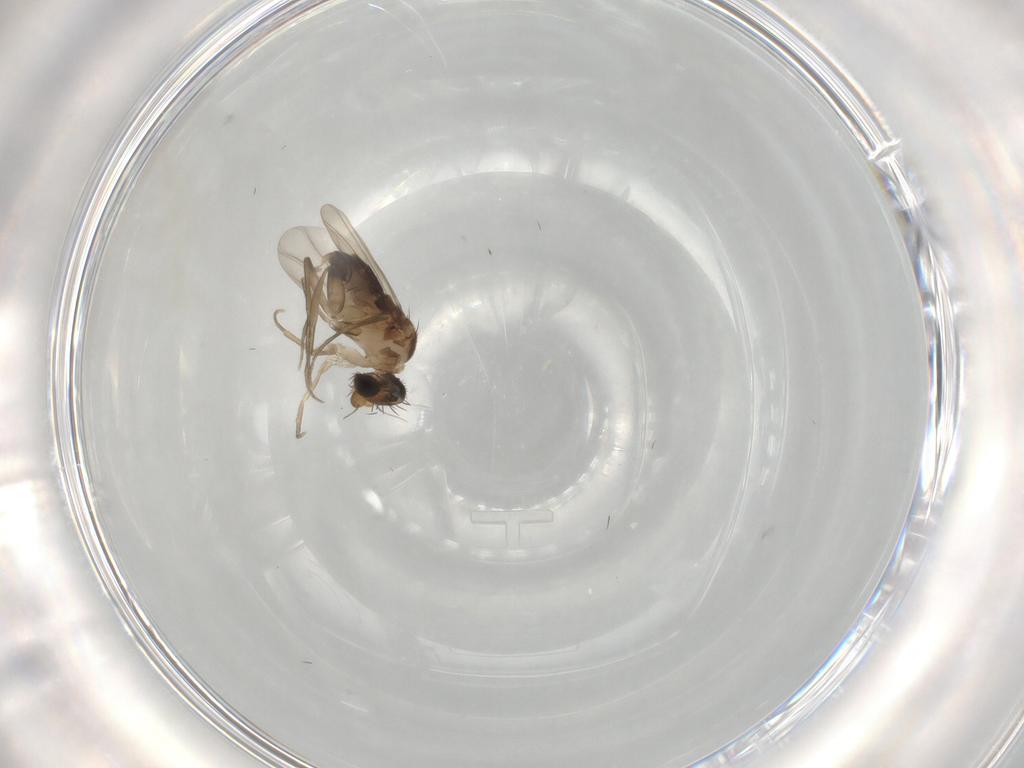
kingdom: Animalia
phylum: Arthropoda
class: Insecta
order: Diptera
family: Phoridae
